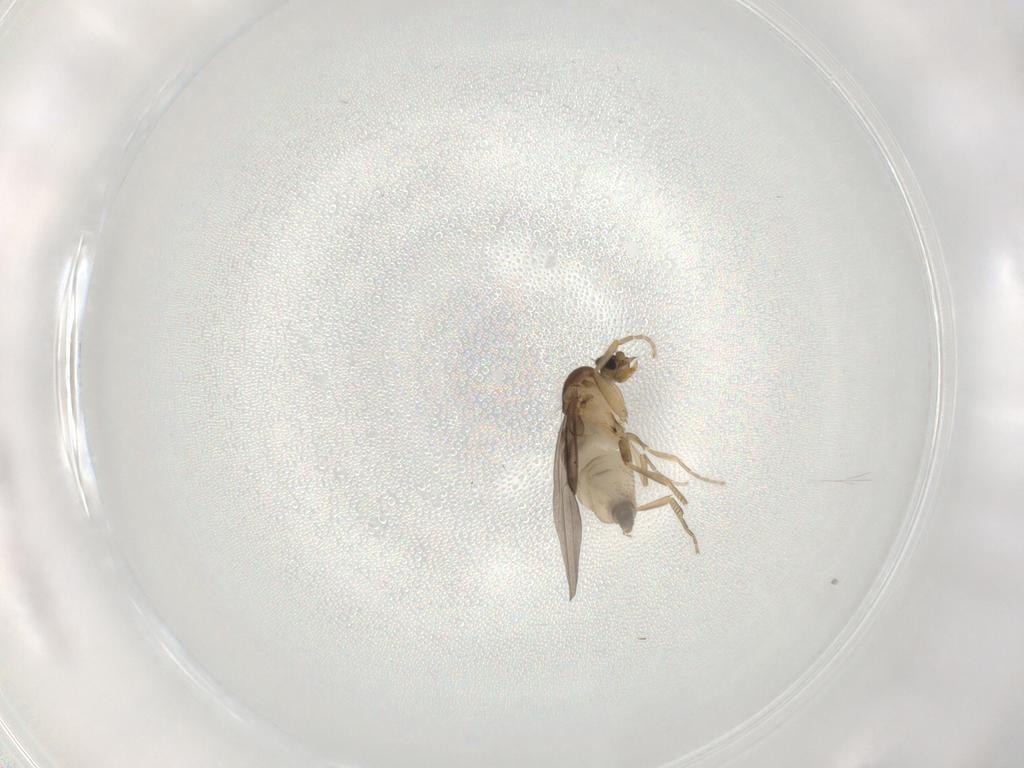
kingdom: Animalia
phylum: Arthropoda
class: Insecta
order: Diptera
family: Phoridae
